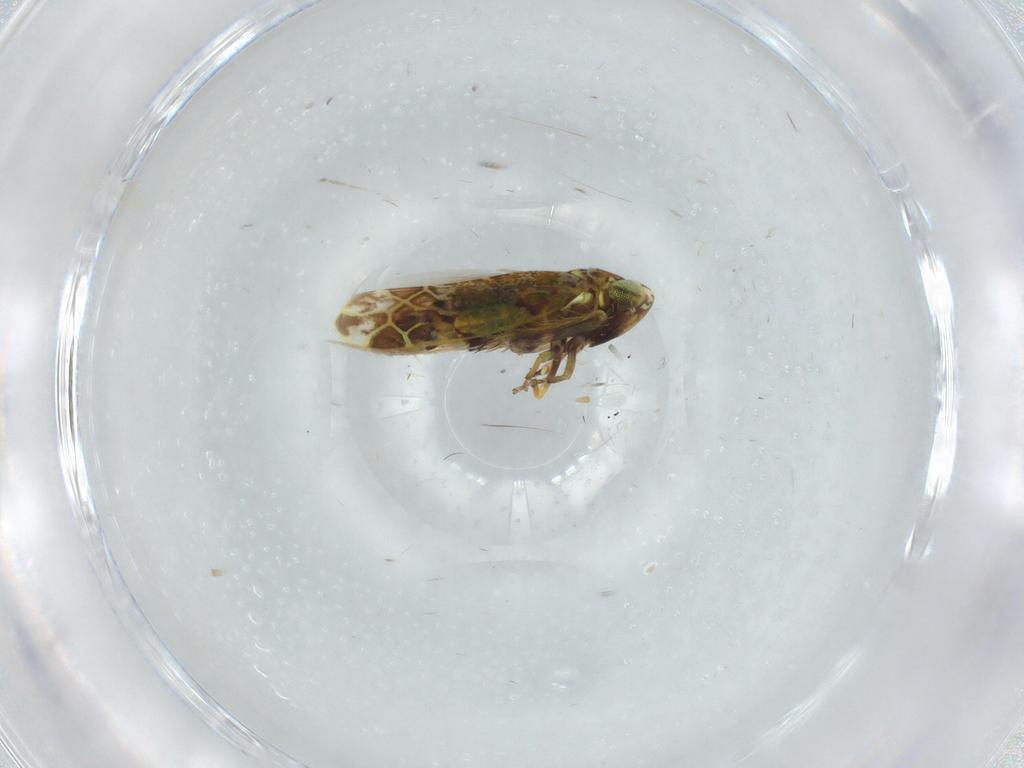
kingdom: Animalia
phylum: Arthropoda
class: Insecta
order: Hemiptera
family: Cicadellidae
